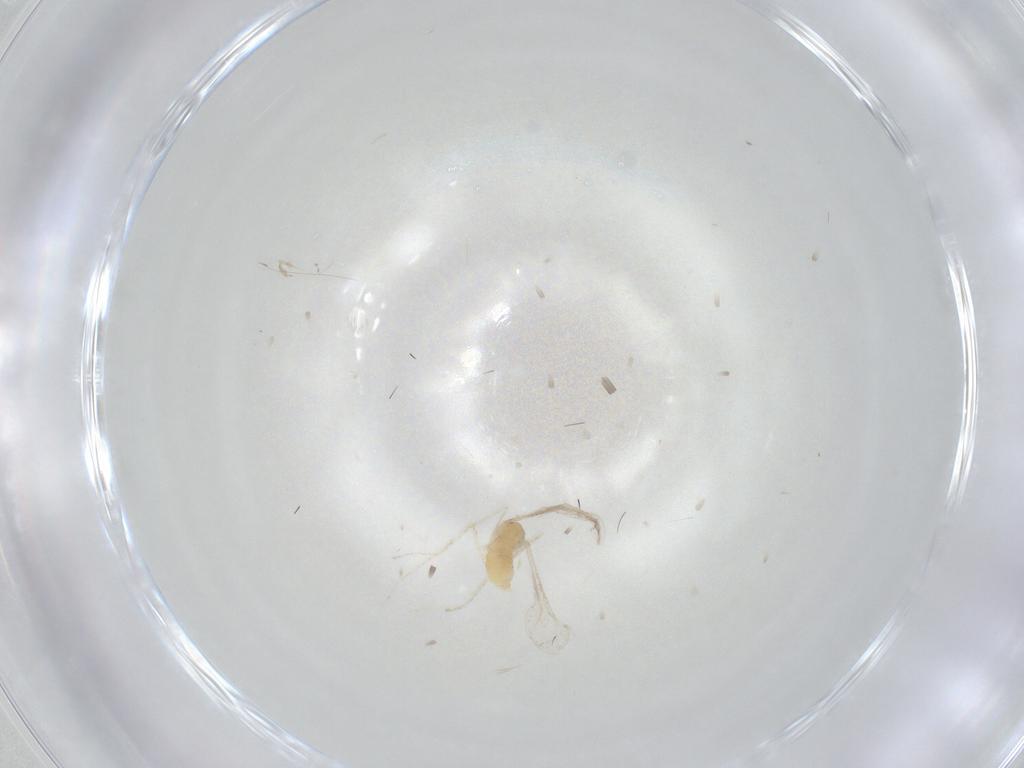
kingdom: Animalia
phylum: Arthropoda
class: Insecta
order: Diptera
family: Cecidomyiidae
